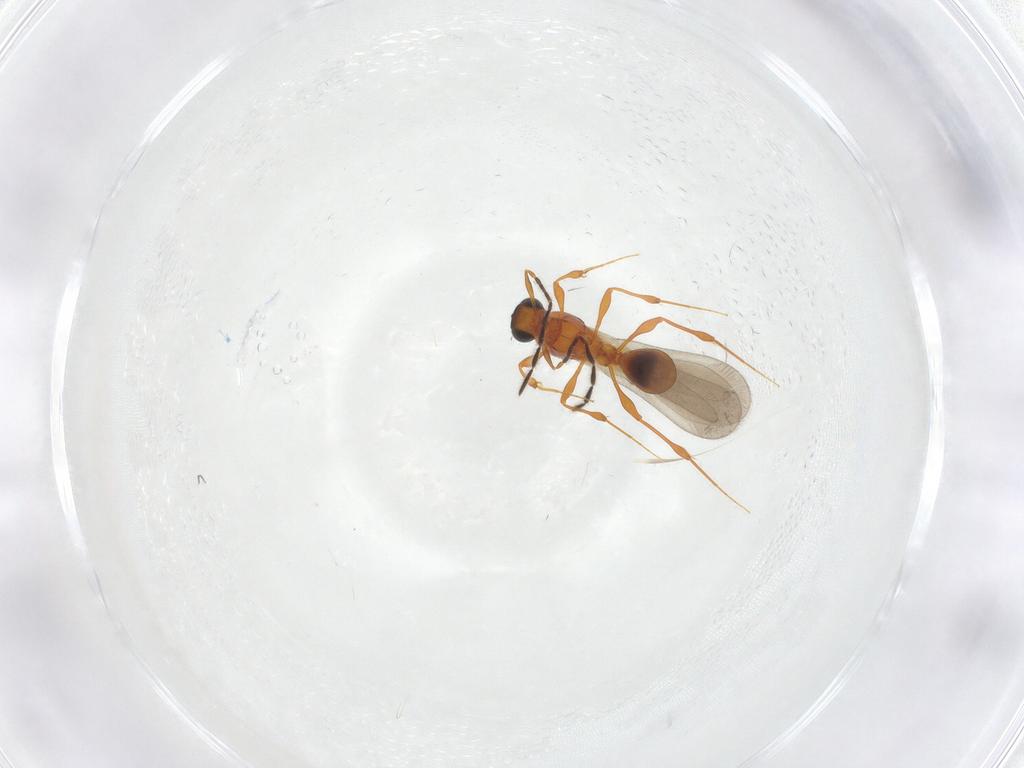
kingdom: Animalia
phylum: Arthropoda
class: Insecta
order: Hymenoptera
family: Platygastridae
